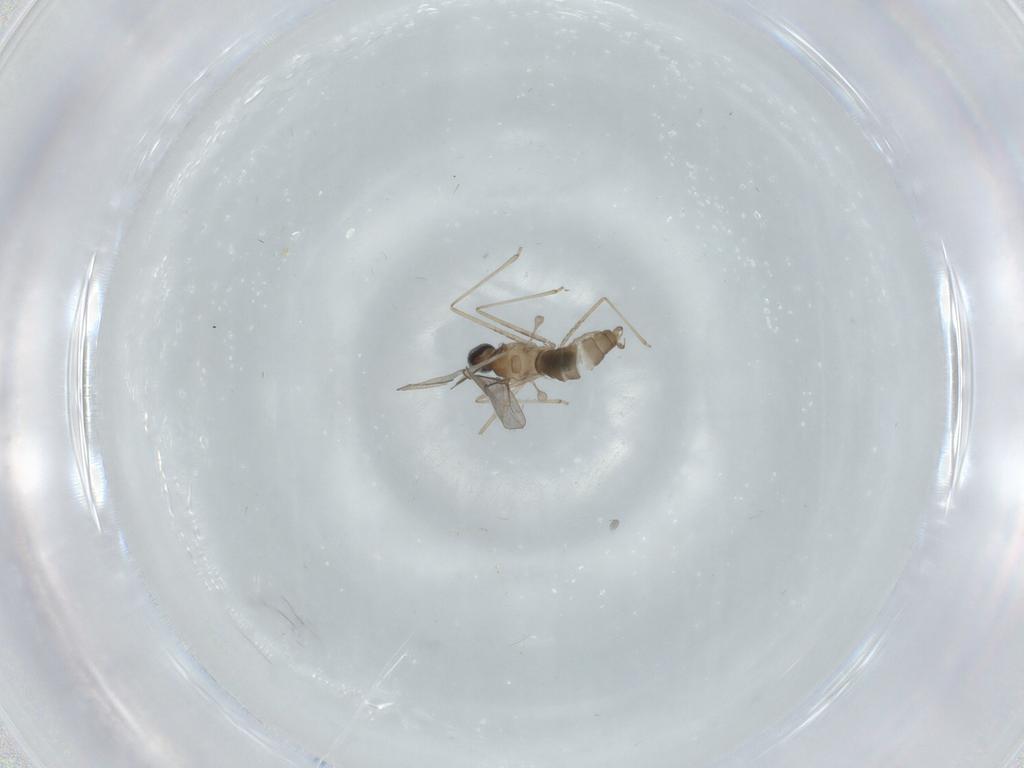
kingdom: Animalia
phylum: Arthropoda
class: Insecta
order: Diptera
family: Cecidomyiidae
